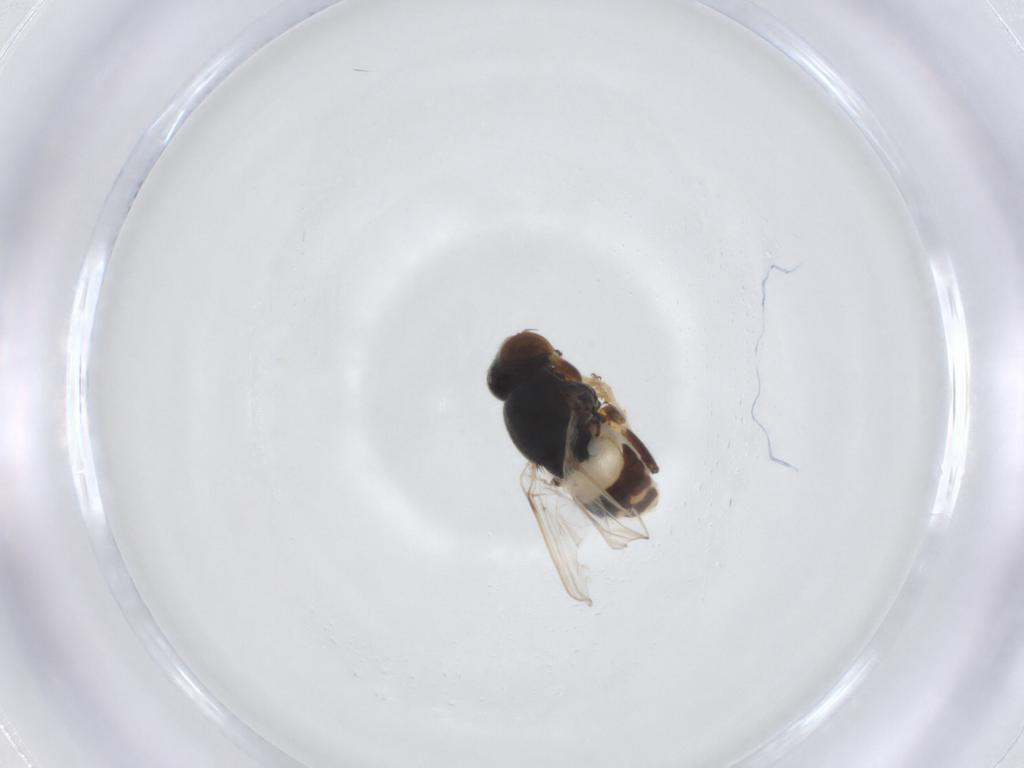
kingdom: Animalia
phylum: Arthropoda
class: Insecta
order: Diptera
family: Chloropidae
